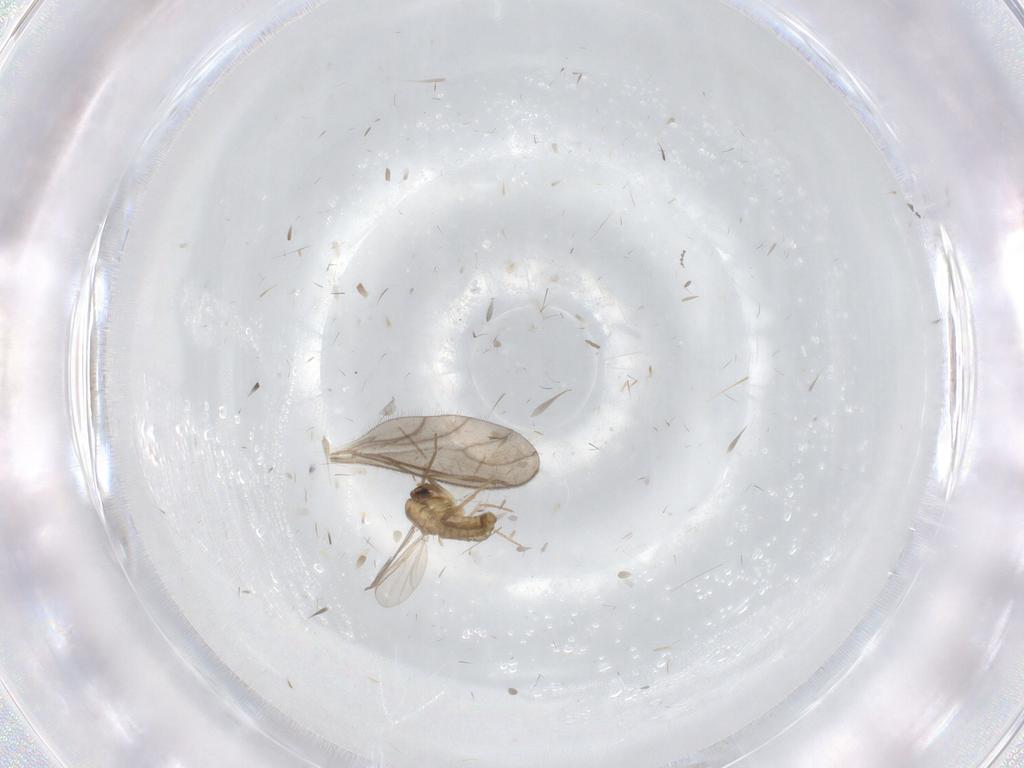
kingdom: Animalia
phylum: Arthropoda
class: Insecta
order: Diptera
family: Chironomidae
